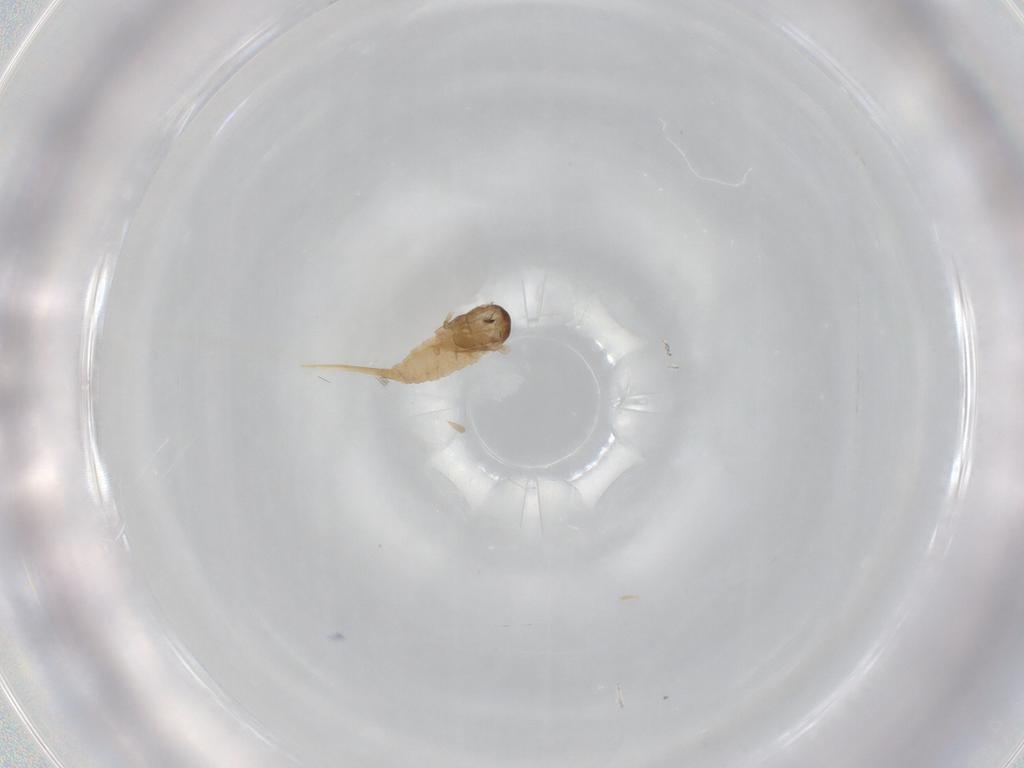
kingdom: Animalia
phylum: Arthropoda
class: Insecta
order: Diptera
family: Cecidomyiidae
